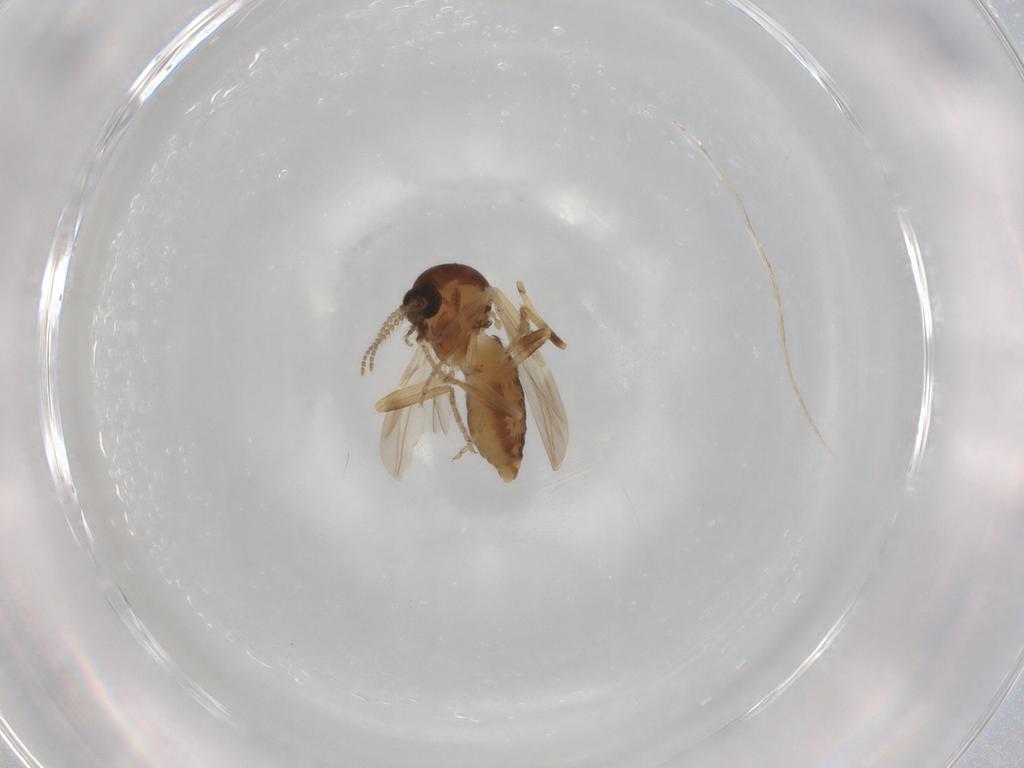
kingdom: Animalia
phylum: Arthropoda
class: Insecta
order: Diptera
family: Ceratopogonidae
